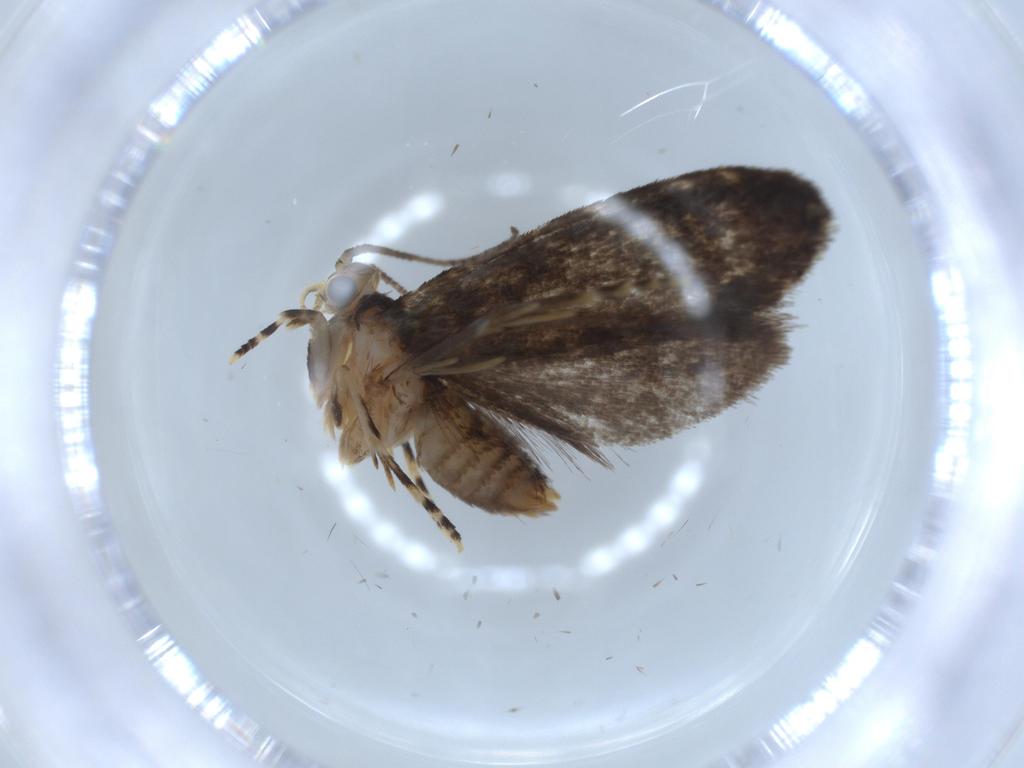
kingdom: Animalia
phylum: Arthropoda
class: Insecta
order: Lepidoptera
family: Tineidae
